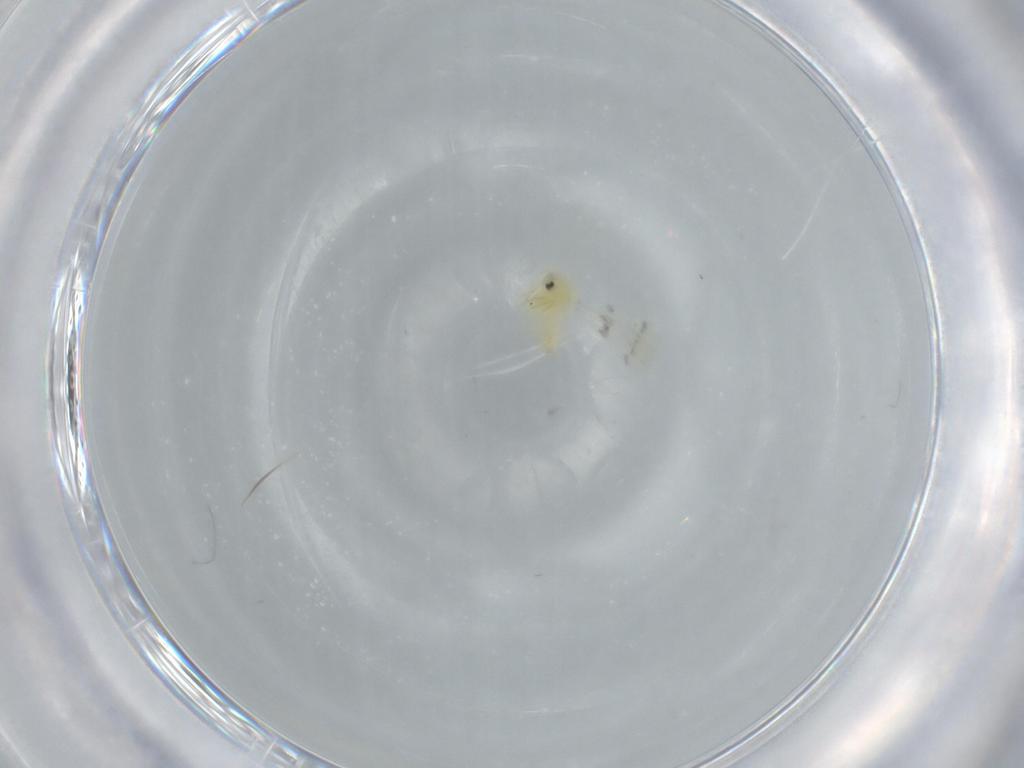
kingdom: Animalia
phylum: Arthropoda
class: Insecta
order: Hemiptera
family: Aleyrodidae
